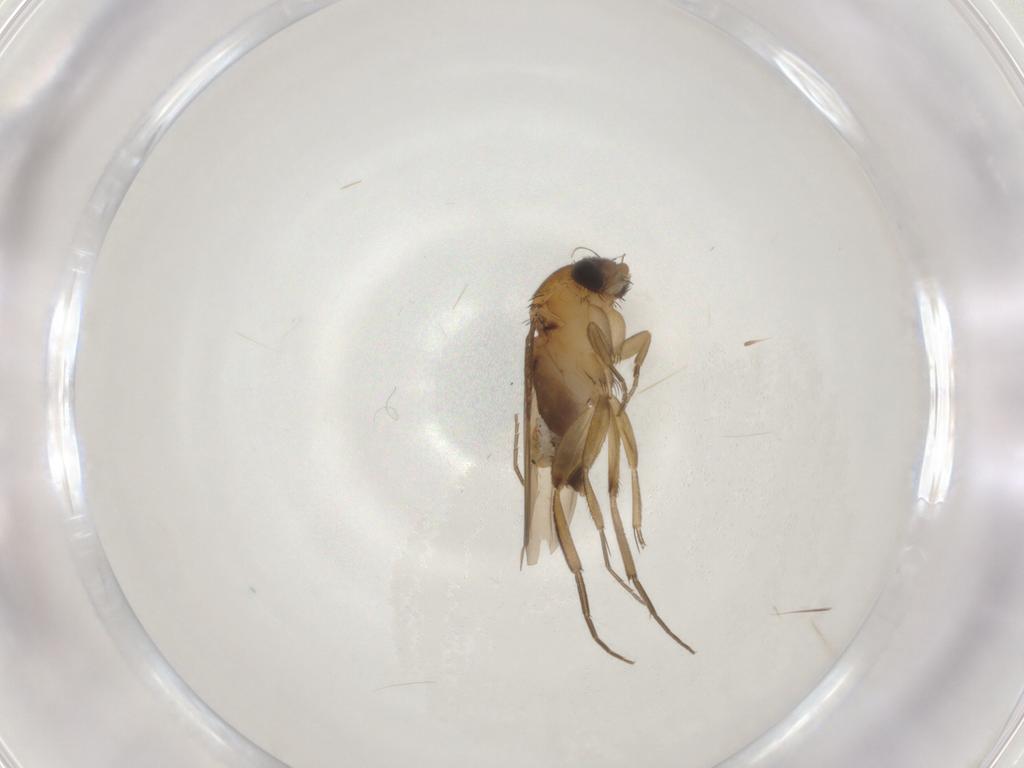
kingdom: Animalia
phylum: Arthropoda
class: Insecta
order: Diptera
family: Phoridae
